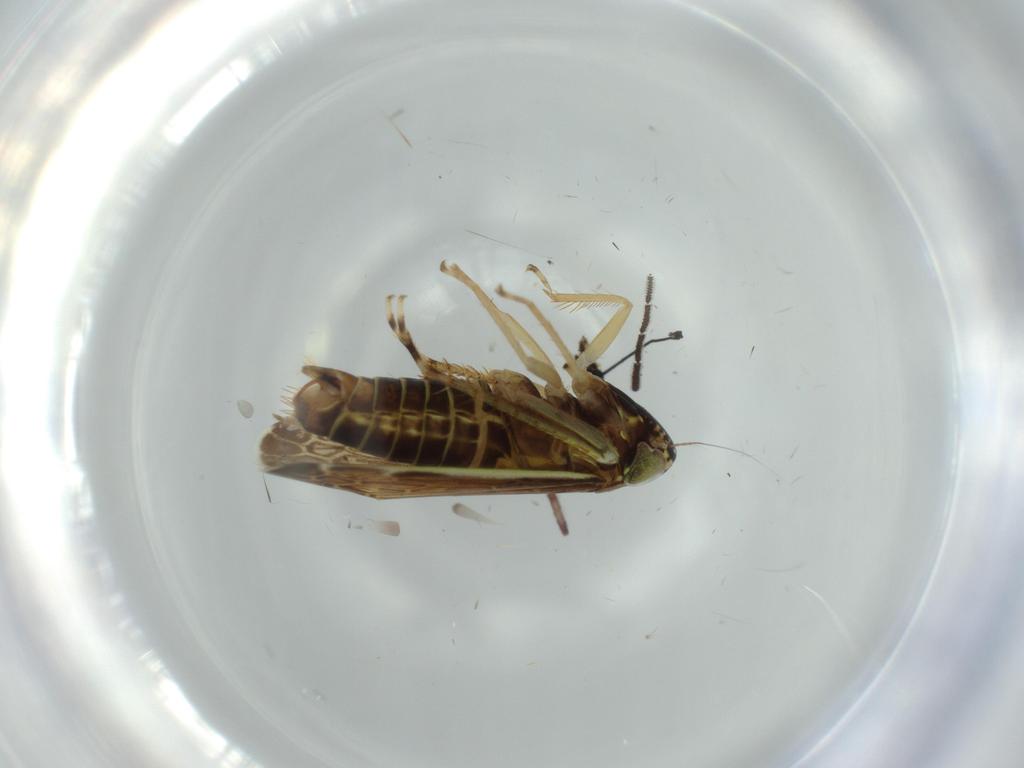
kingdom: Animalia
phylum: Arthropoda
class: Insecta
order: Hemiptera
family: Cicadellidae
